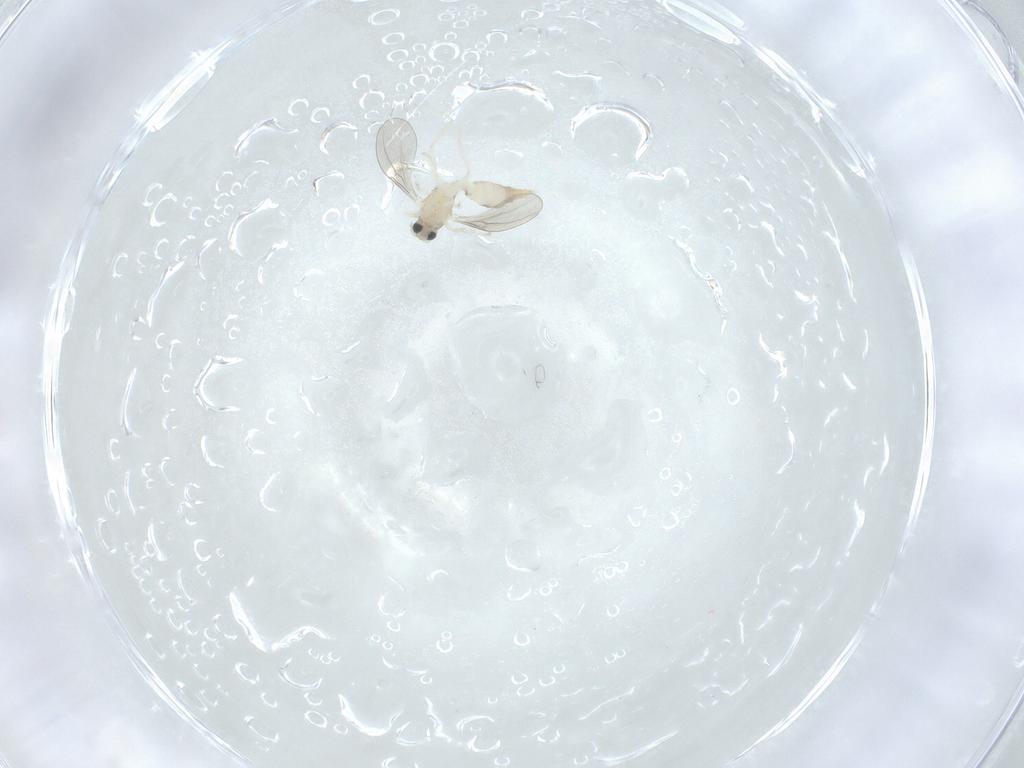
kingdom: Animalia
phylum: Arthropoda
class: Insecta
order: Diptera
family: Cecidomyiidae
